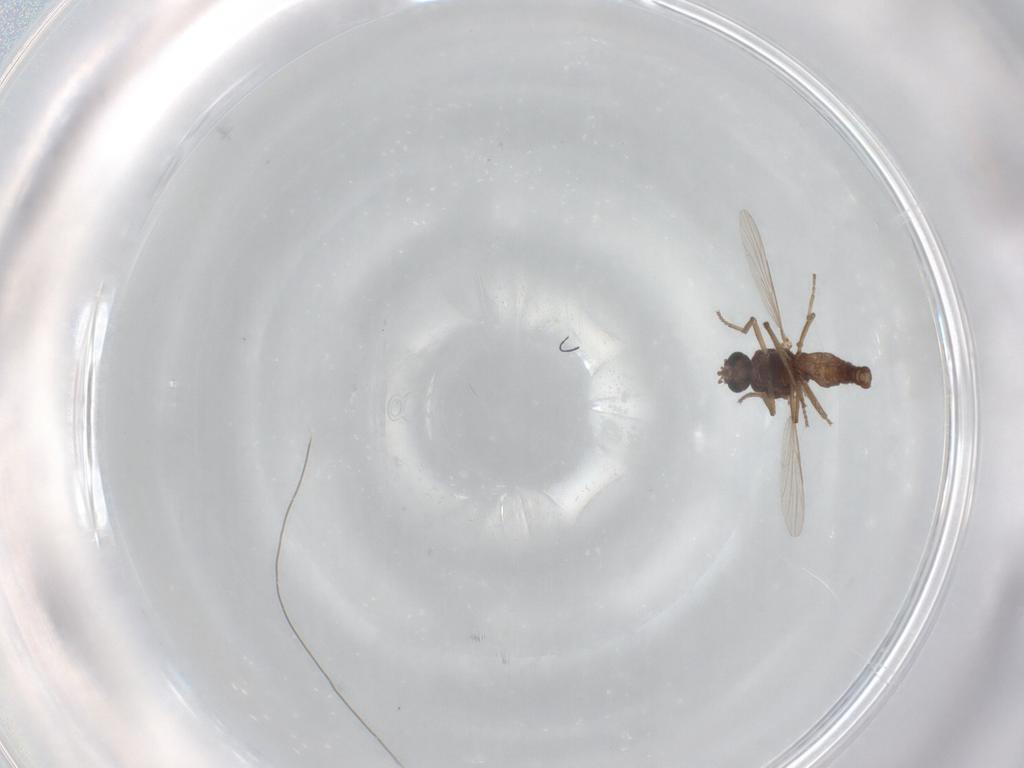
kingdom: Animalia
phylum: Arthropoda
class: Insecta
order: Diptera
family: Ceratopogonidae
